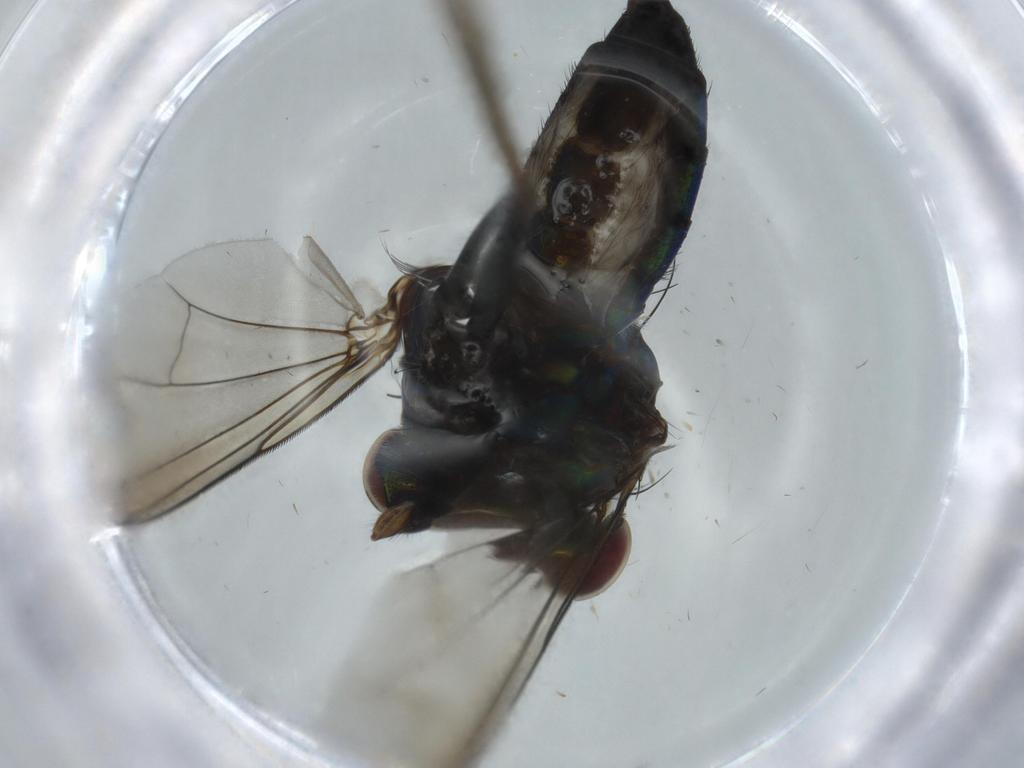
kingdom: Animalia
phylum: Arthropoda
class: Insecta
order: Diptera
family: Dolichopodidae
